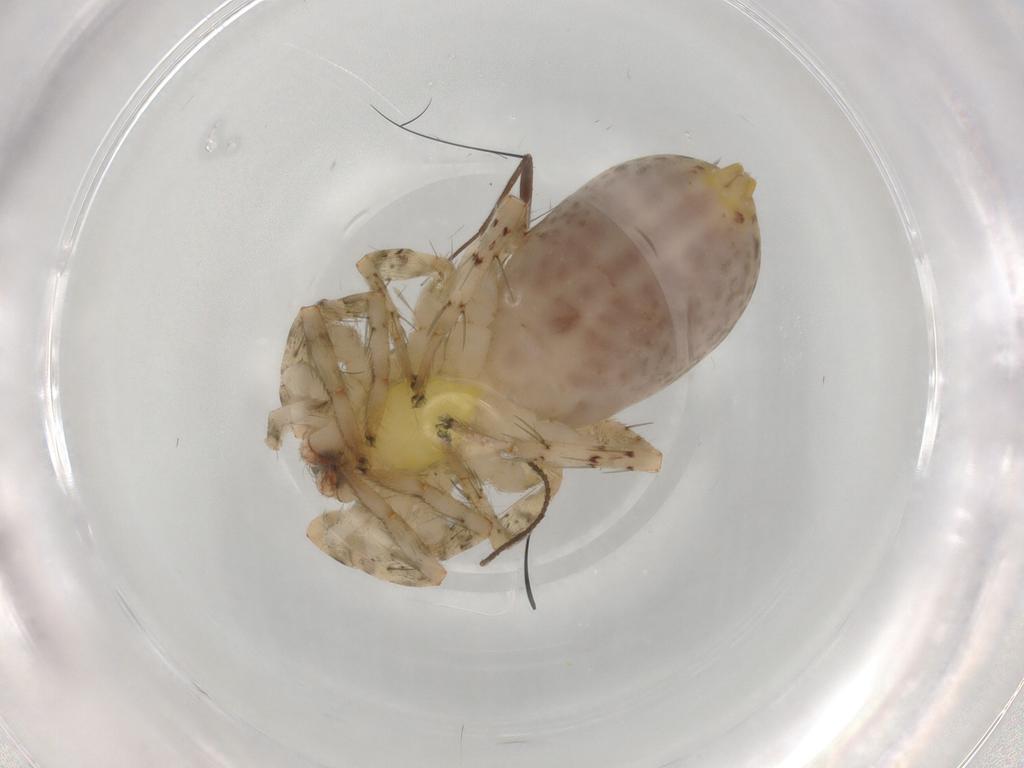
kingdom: Animalia
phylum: Arthropoda
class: Arachnida
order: Araneae
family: Anyphaenidae
